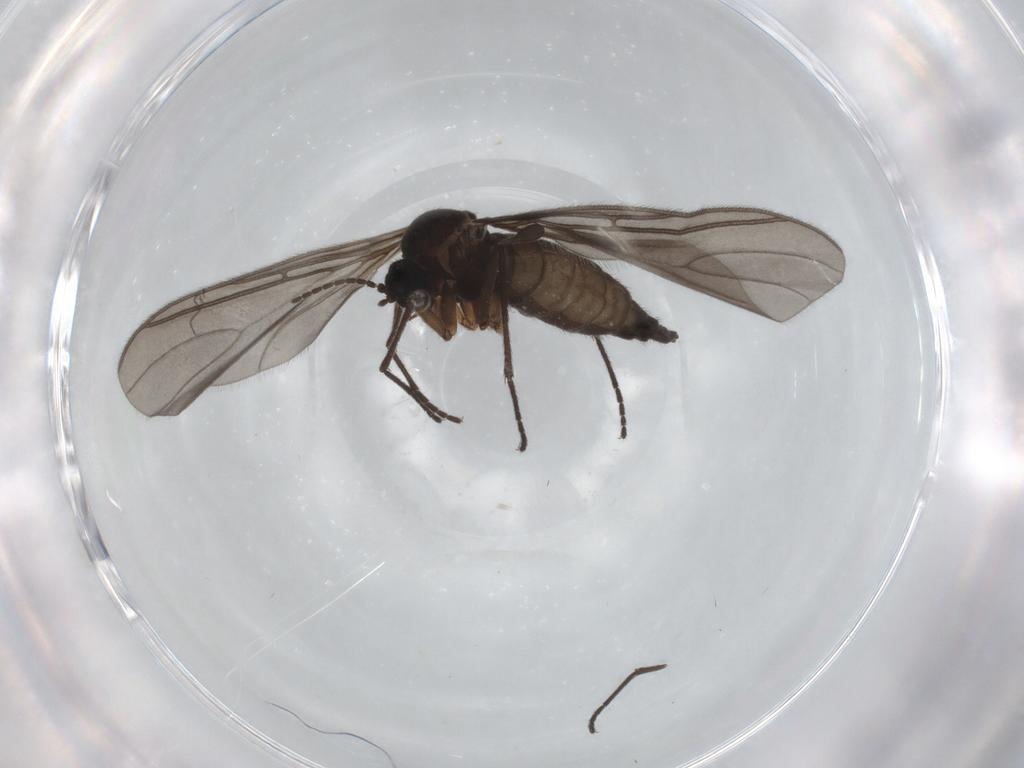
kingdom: Animalia
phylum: Arthropoda
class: Insecta
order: Diptera
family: Sciaridae
